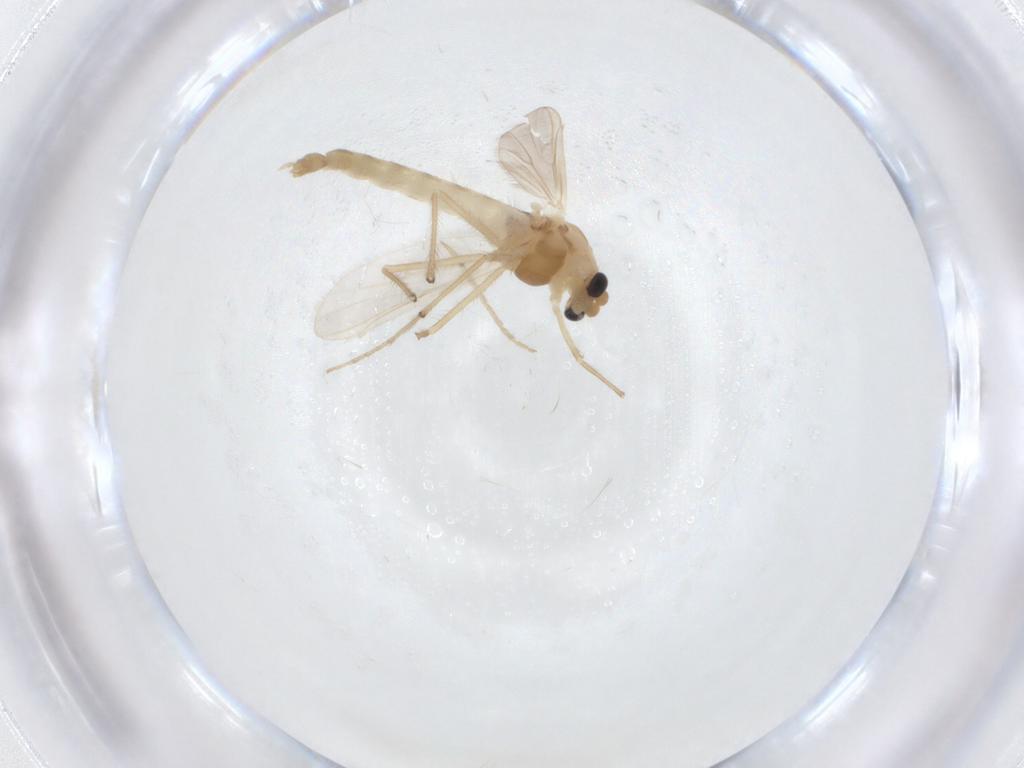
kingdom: Animalia
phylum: Arthropoda
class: Insecta
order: Diptera
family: Chironomidae
